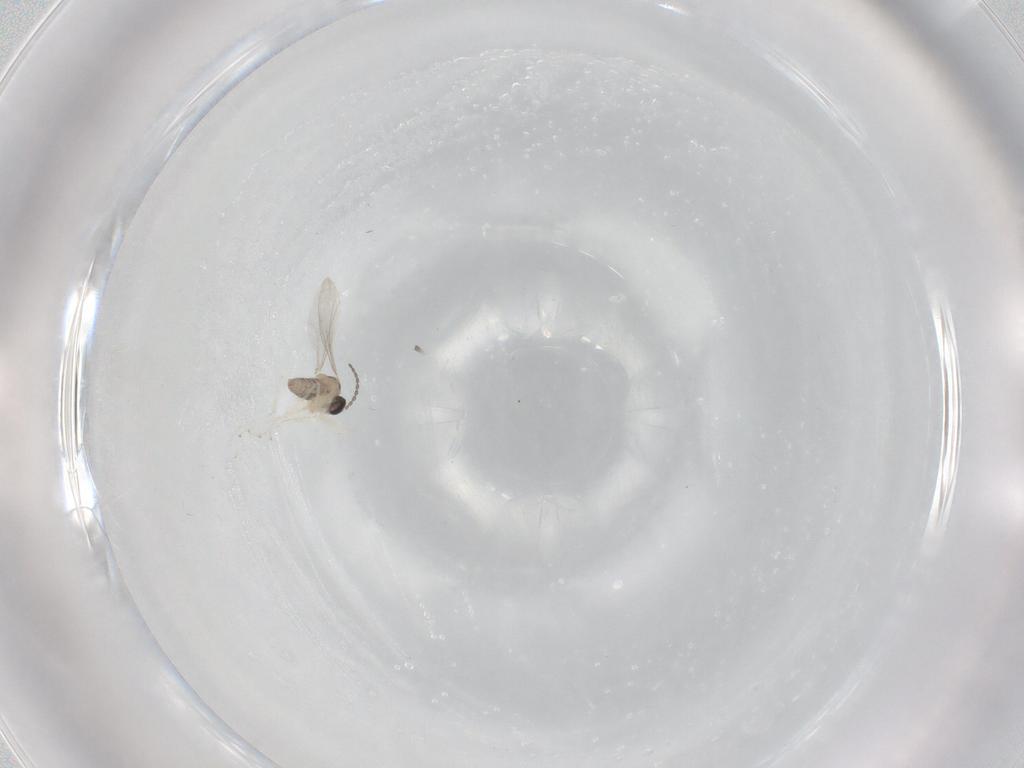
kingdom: Animalia
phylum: Arthropoda
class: Insecta
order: Diptera
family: Cecidomyiidae
